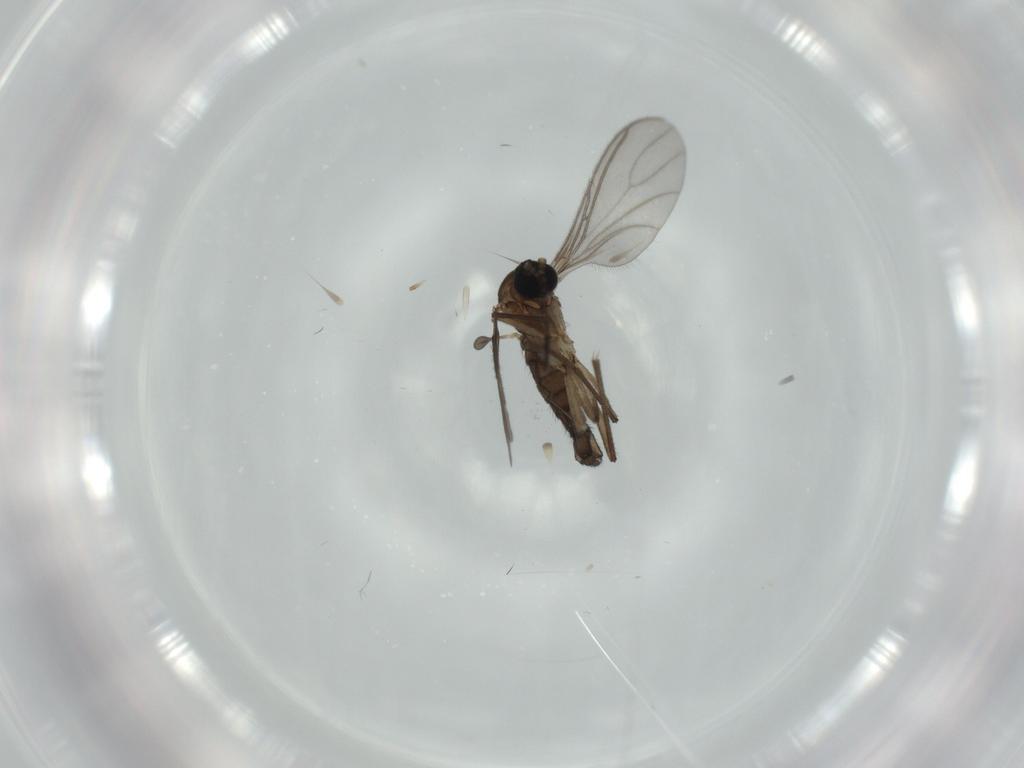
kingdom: Animalia
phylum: Arthropoda
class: Insecta
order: Diptera
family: Sciaridae
